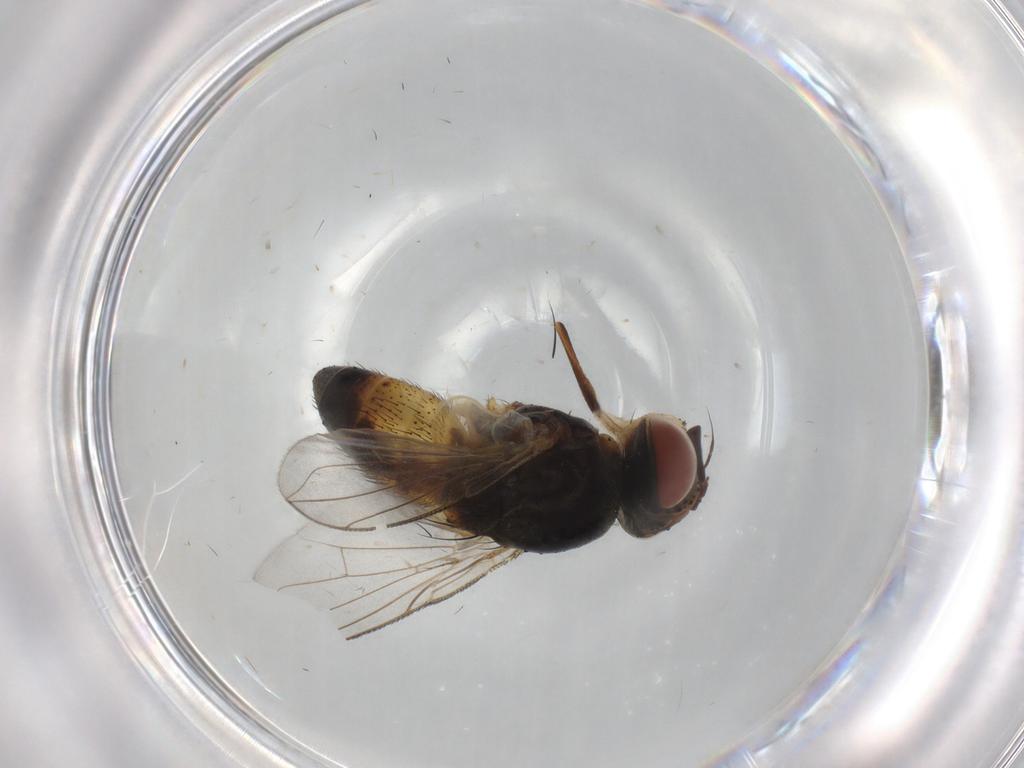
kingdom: Animalia
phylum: Arthropoda
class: Insecta
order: Diptera
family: Tachinidae
